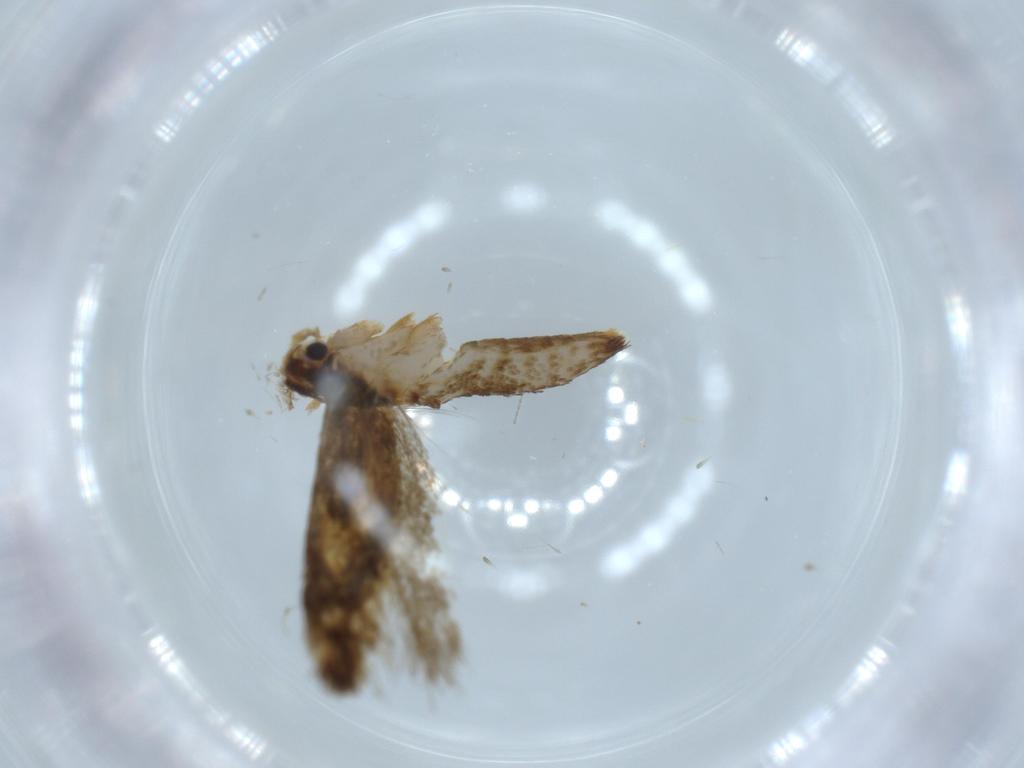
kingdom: Animalia
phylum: Arthropoda
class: Insecta
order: Lepidoptera
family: Tineidae
